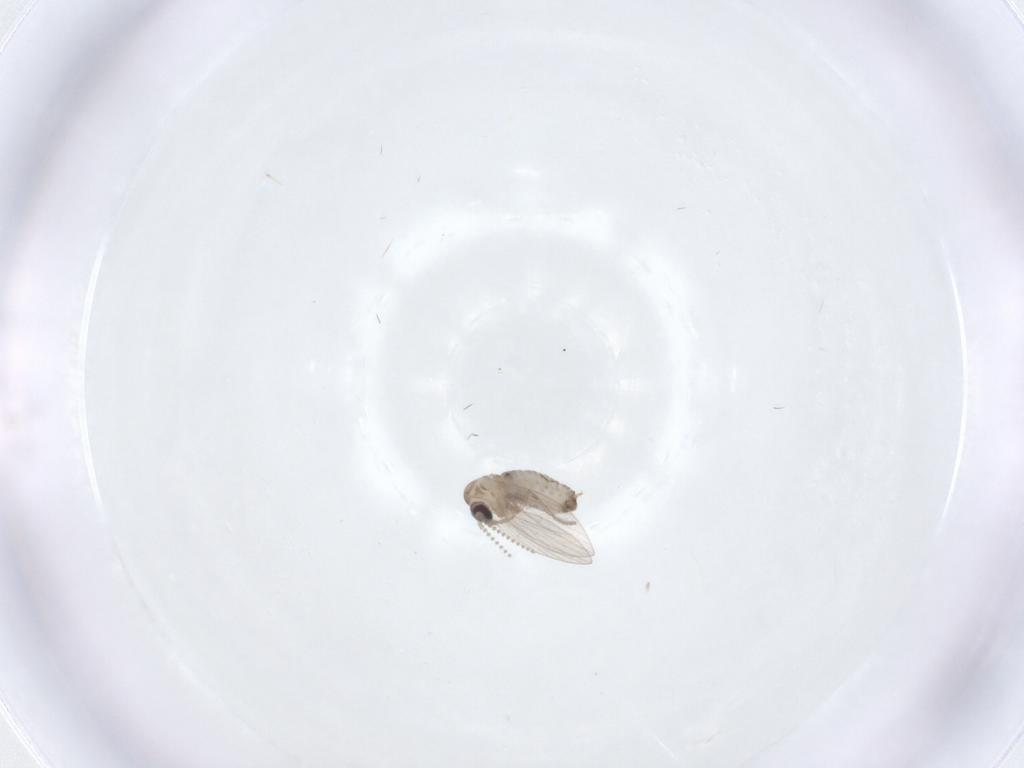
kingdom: Animalia
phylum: Arthropoda
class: Insecta
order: Diptera
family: Psychodidae
